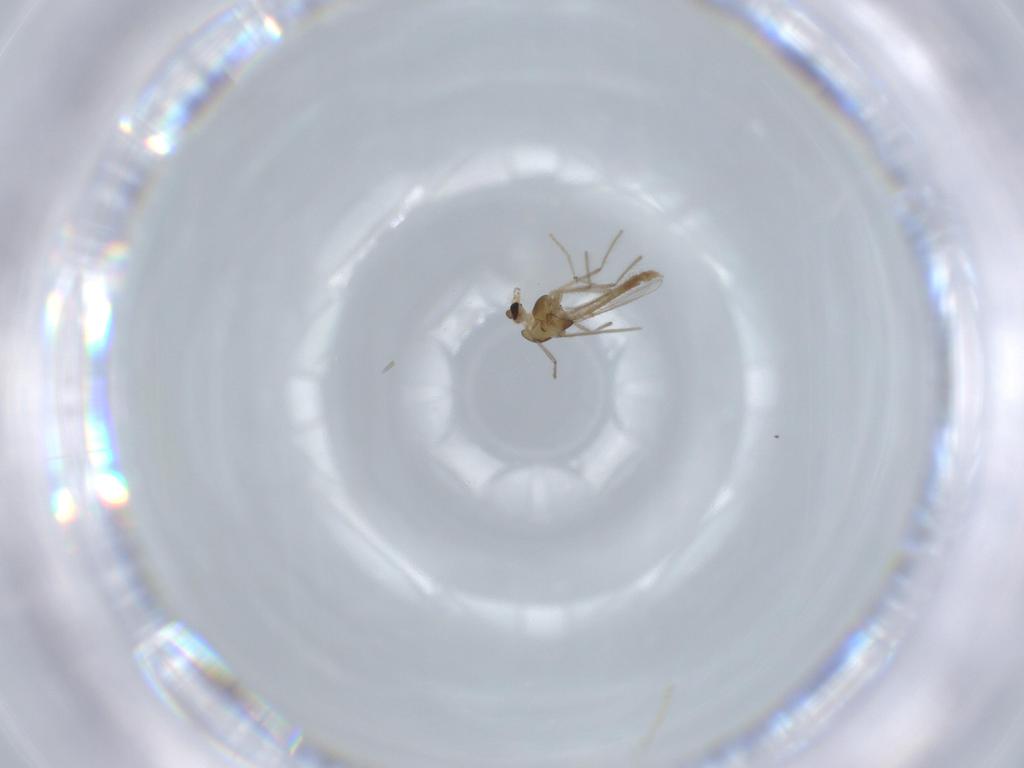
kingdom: Animalia
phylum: Arthropoda
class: Insecta
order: Diptera
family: Chironomidae
